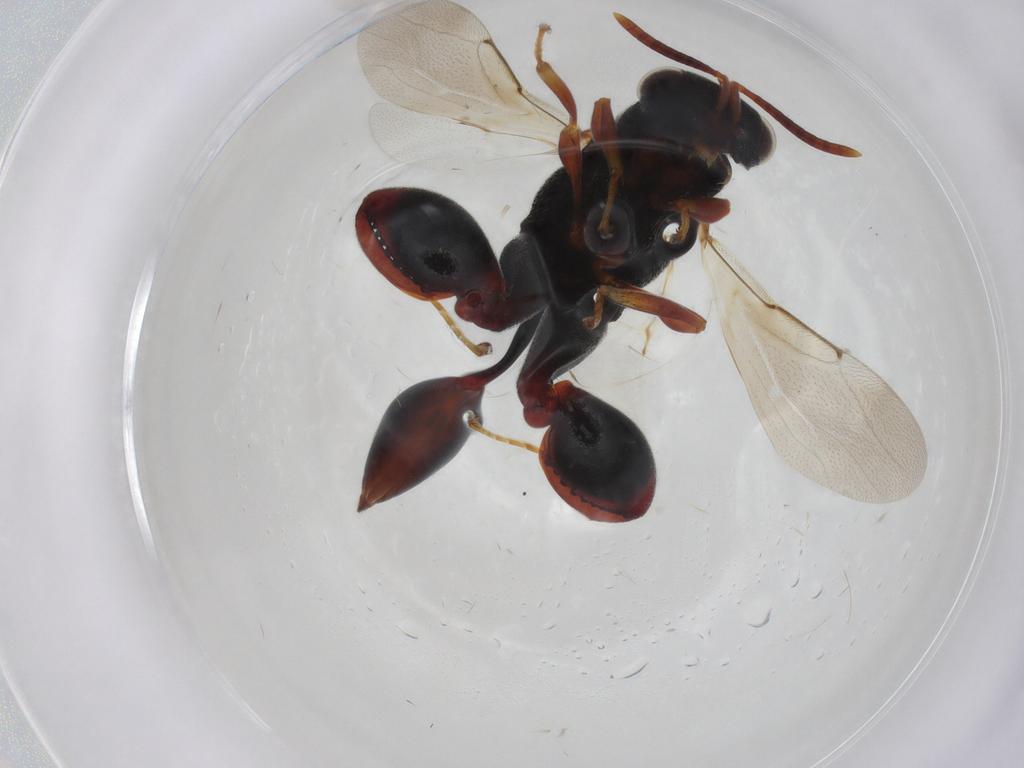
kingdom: Animalia
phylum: Arthropoda
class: Insecta
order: Hymenoptera
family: Chalcididae
